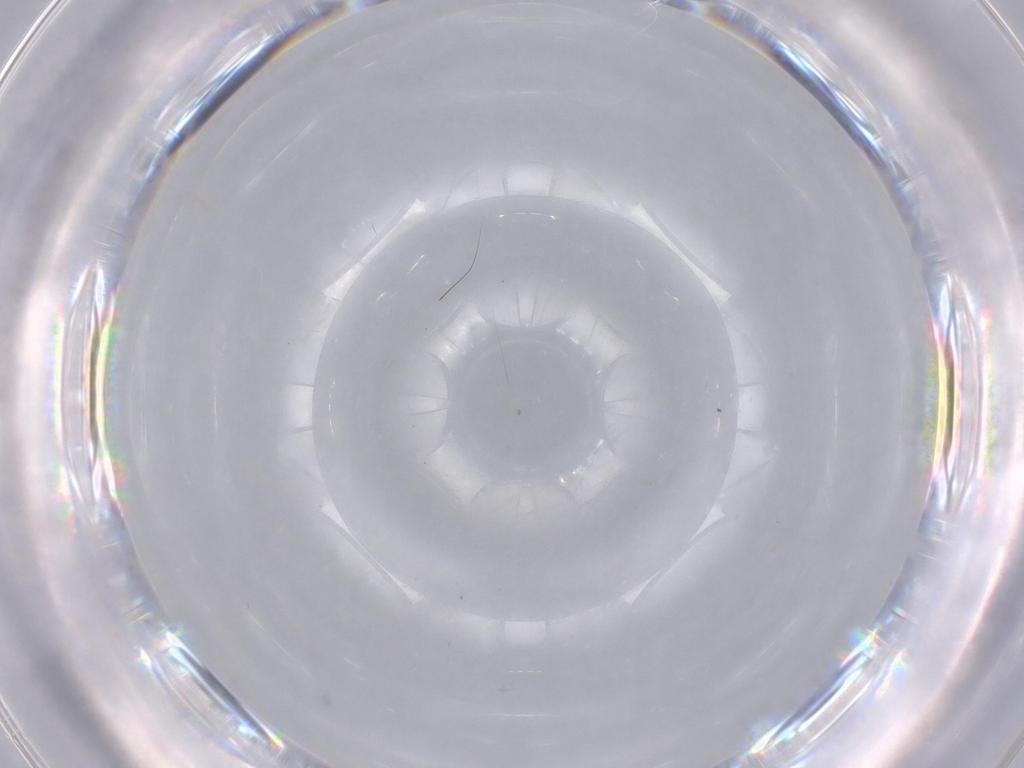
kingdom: Animalia
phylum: Arthropoda
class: Insecta
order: Diptera
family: Cecidomyiidae
